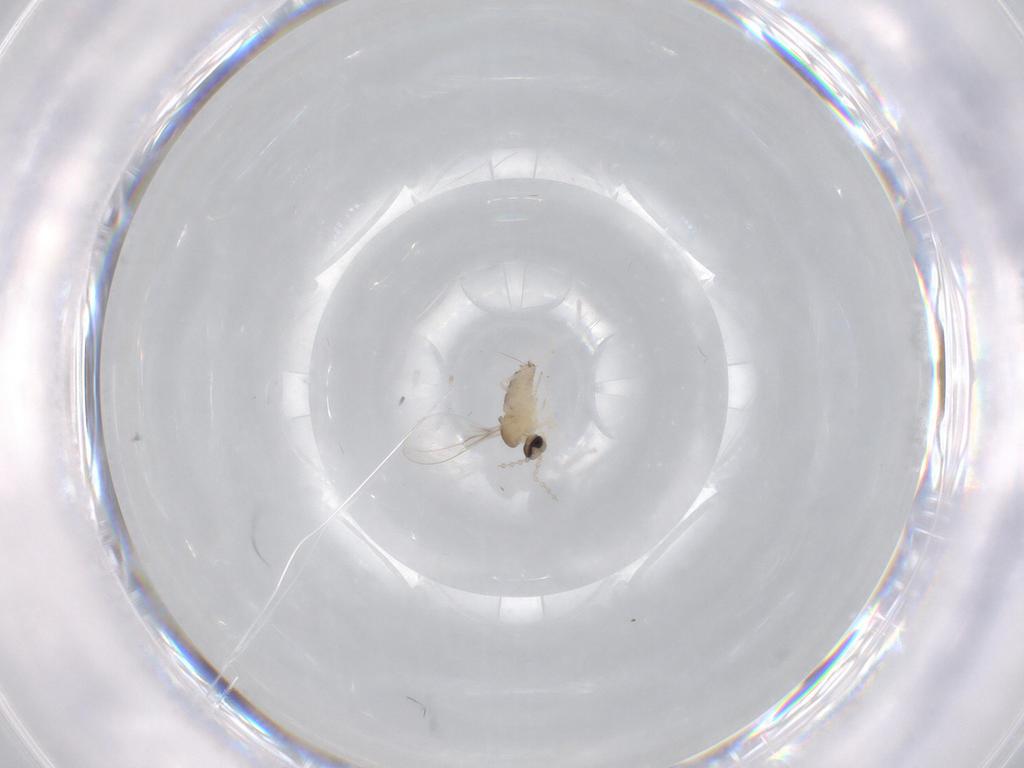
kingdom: Animalia
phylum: Arthropoda
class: Insecta
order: Diptera
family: Cecidomyiidae
